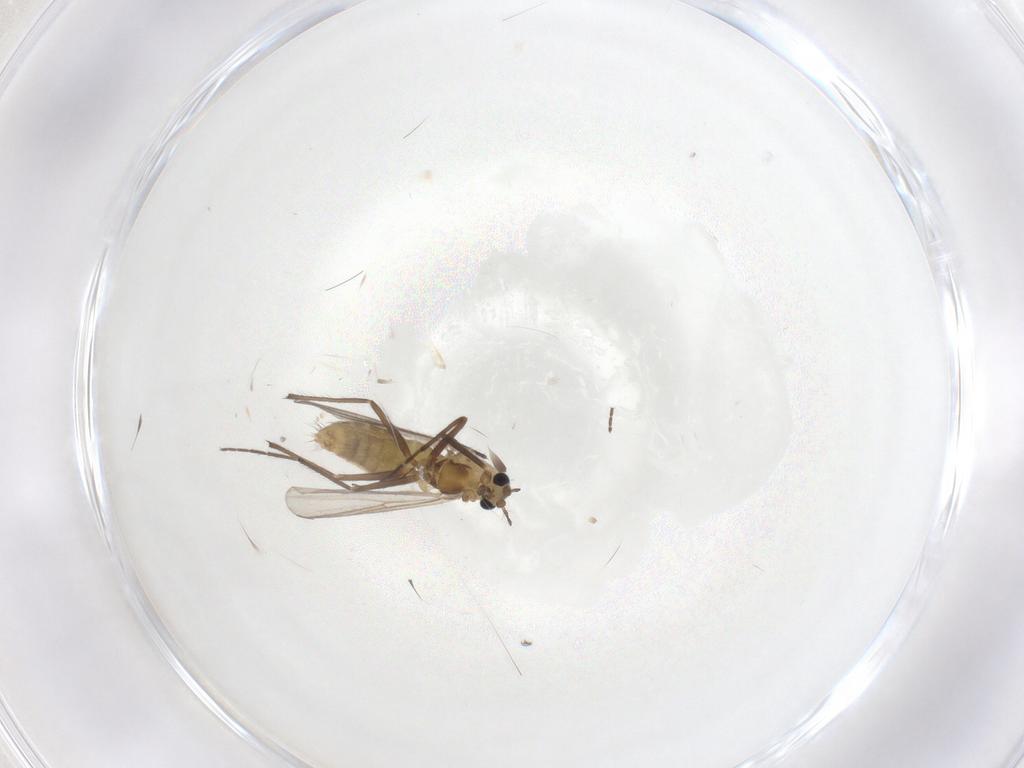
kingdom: Animalia
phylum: Arthropoda
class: Insecta
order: Diptera
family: Chironomidae
